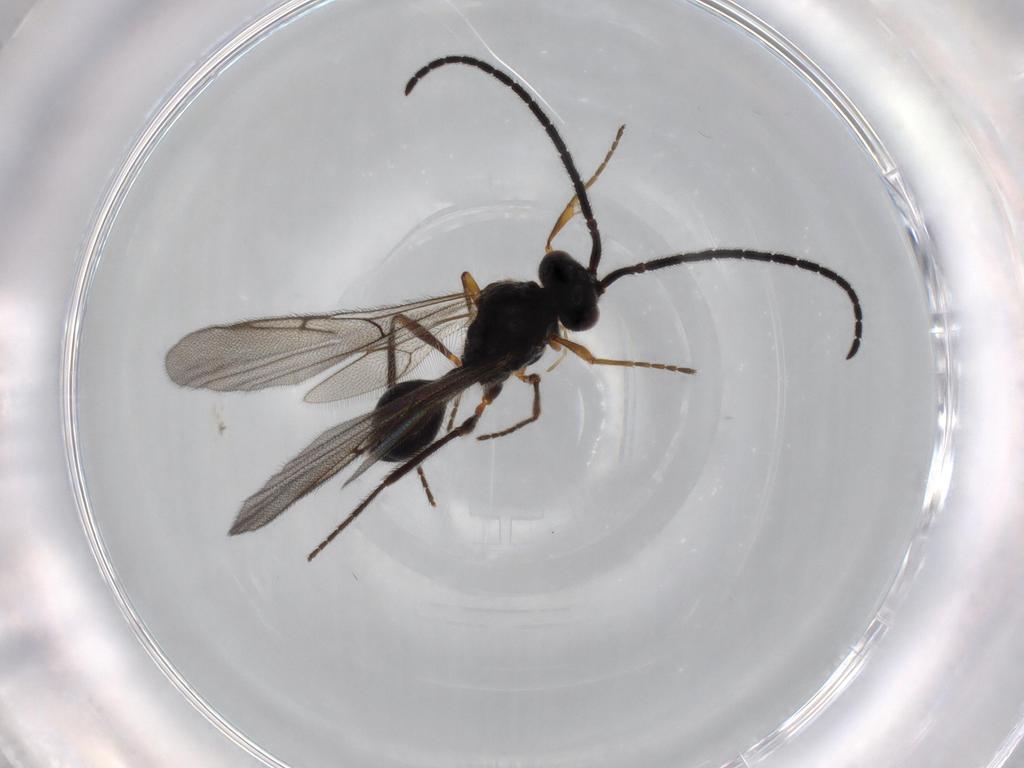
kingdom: Animalia
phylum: Arthropoda
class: Insecta
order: Hymenoptera
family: Diapriidae
